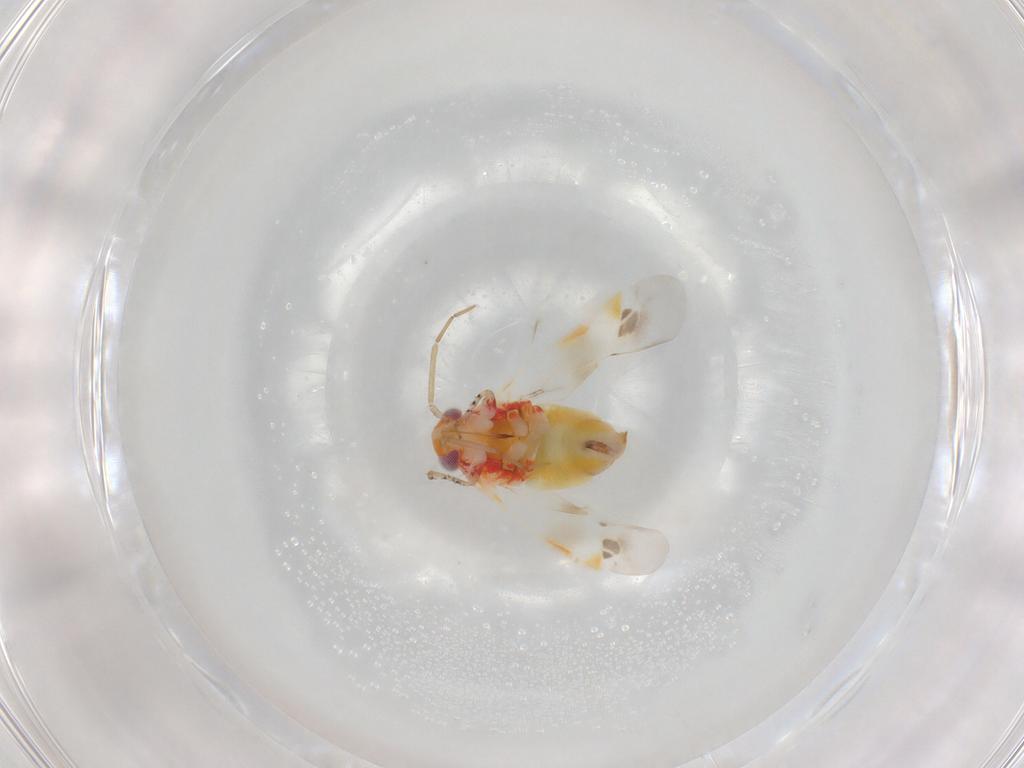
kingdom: Animalia
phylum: Arthropoda
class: Insecta
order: Hemiptera
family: Miridae
